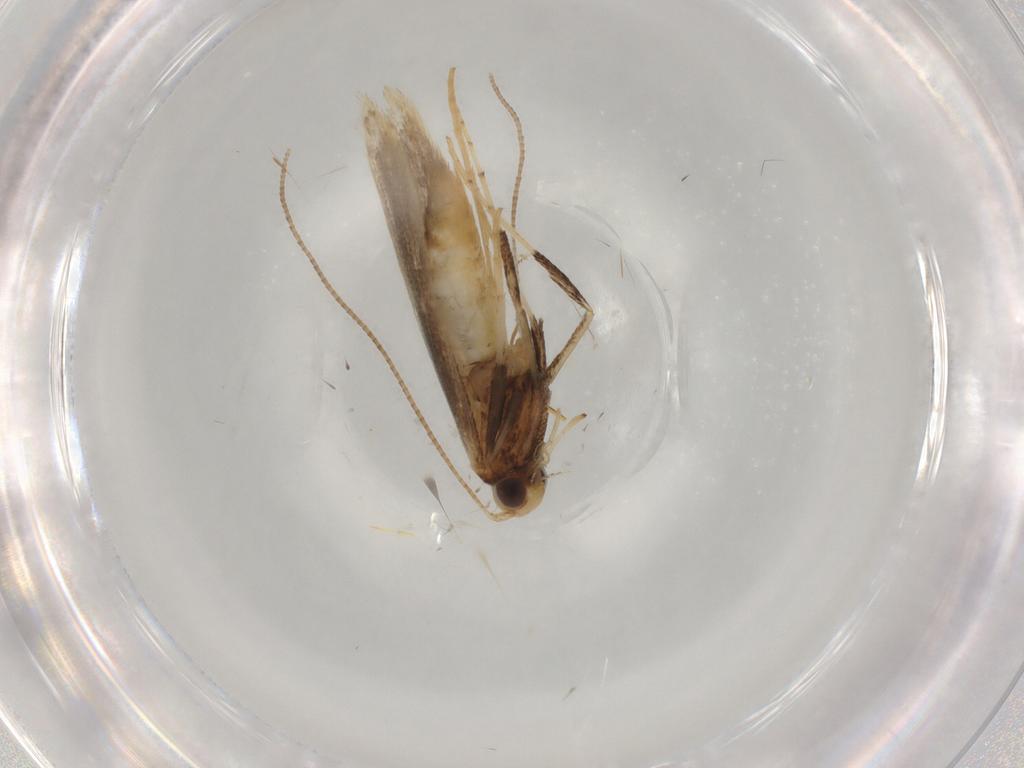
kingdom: Animalia
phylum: Arthropoda
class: Insecta
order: Lepidoptera
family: Gracillariidae
